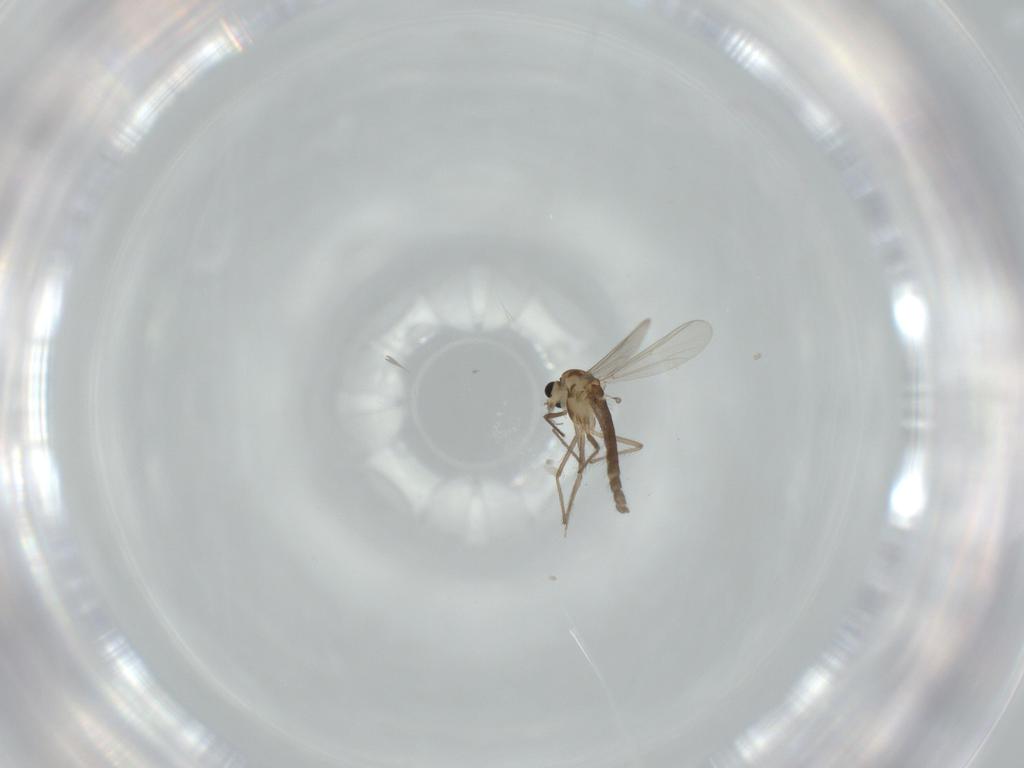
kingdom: Animalia
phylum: Arthropoda
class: Insecta
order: Diptera
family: Chironomidae
